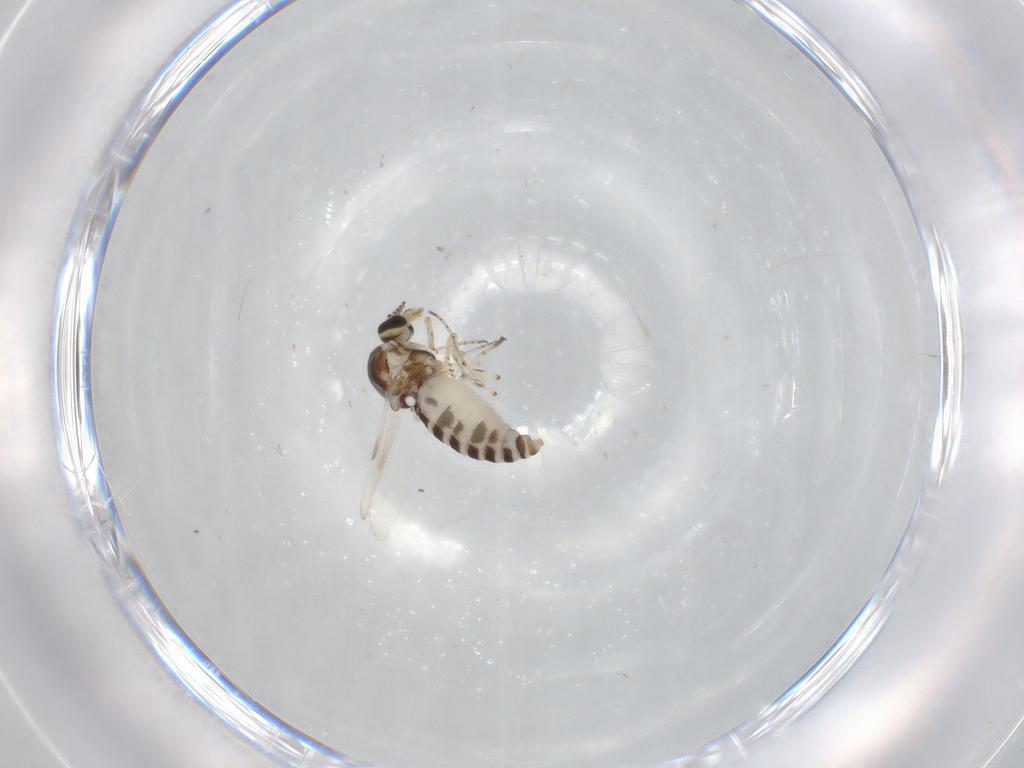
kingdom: Animalia
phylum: Arthropoda
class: Insecta
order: Diptera
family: Ceratopogonidae
